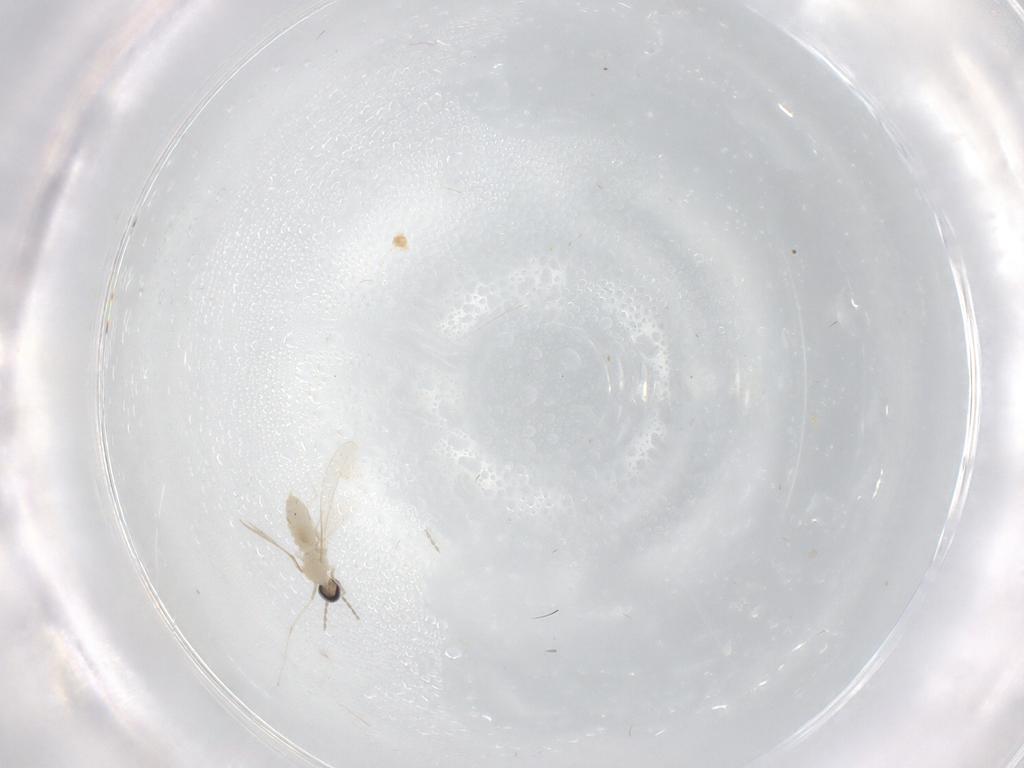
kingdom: Animalia
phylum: Arthropoda
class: Insecta
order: Diptera
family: Cecidomyiidae
